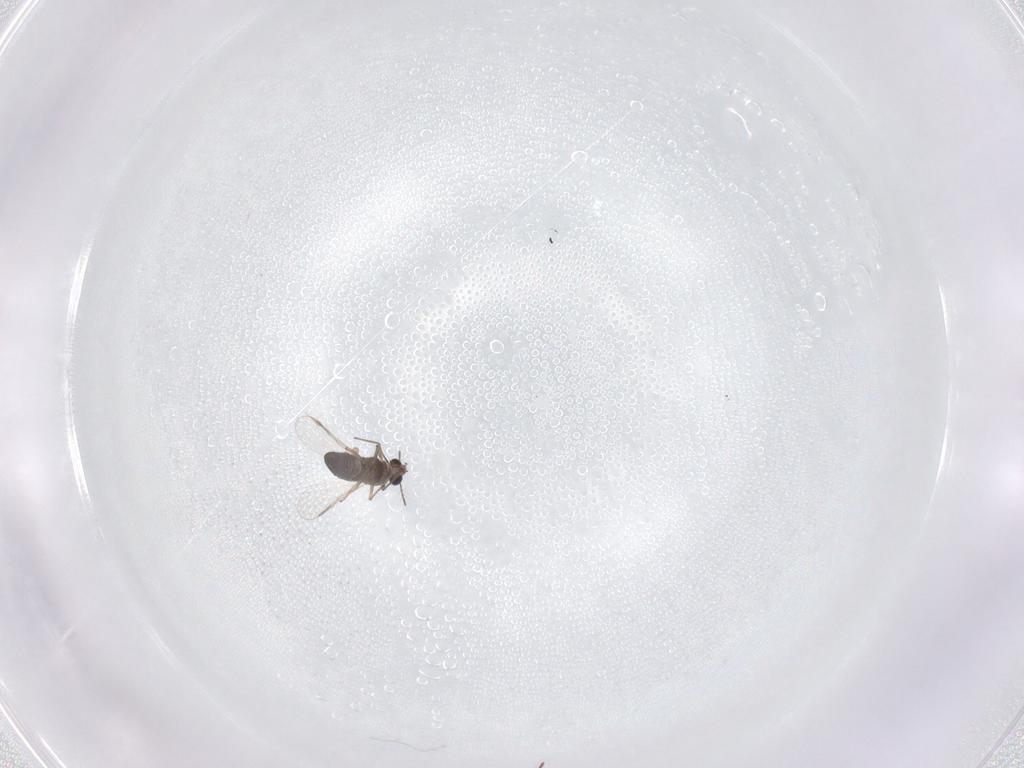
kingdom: Animalia
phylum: Arthropoda
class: Insecta
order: Diptera
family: Chironomidae
